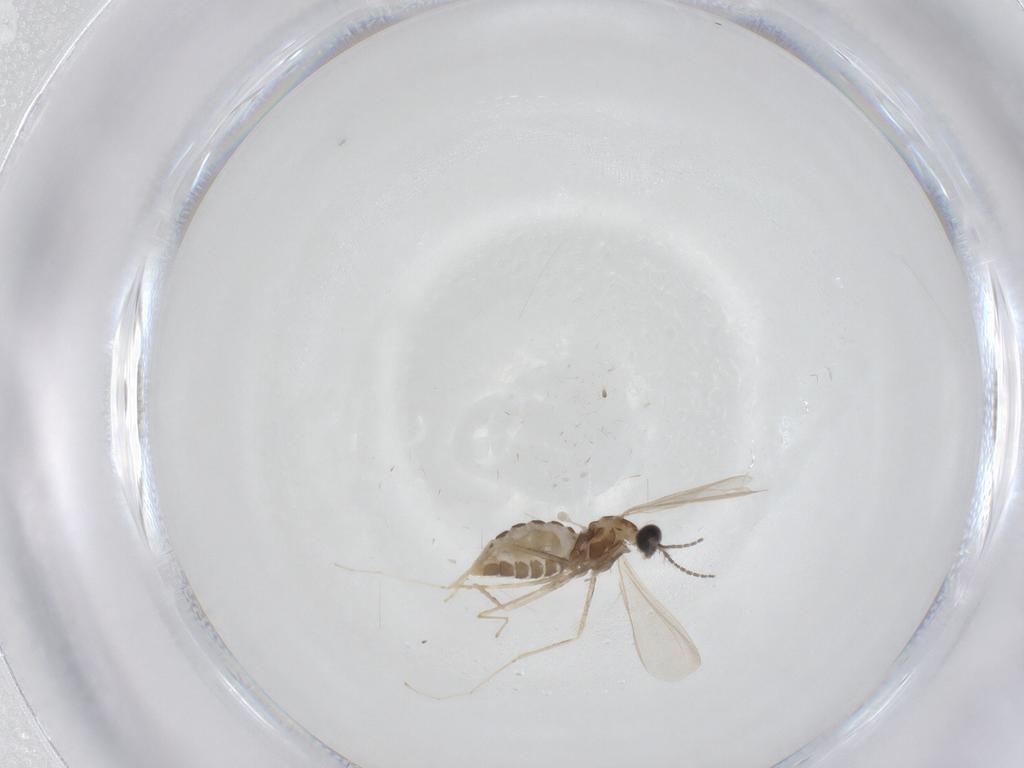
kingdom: Animalia
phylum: Arthropoda
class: Insecta
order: Diptera
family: Cecidomyiidae
